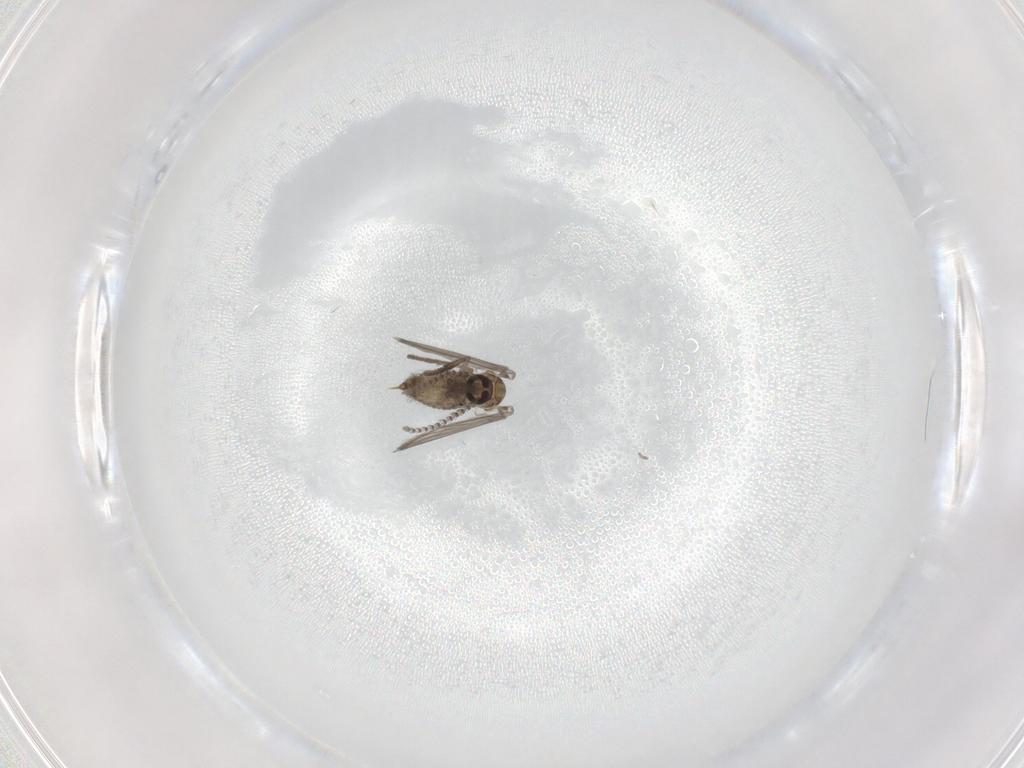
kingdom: Animalia
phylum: Arthropoda
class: Insecta
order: Diptera
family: Psychodidae
